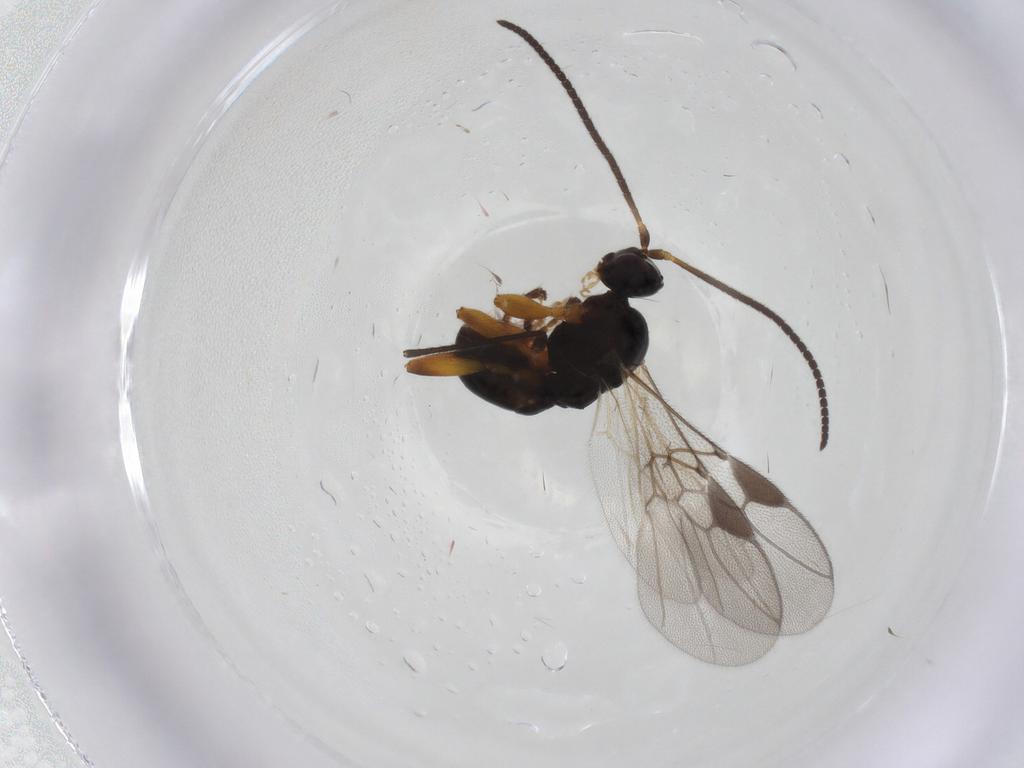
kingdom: Animalia
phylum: Arthropoda
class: Insecta
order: Hymenoptera
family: Braconidae
